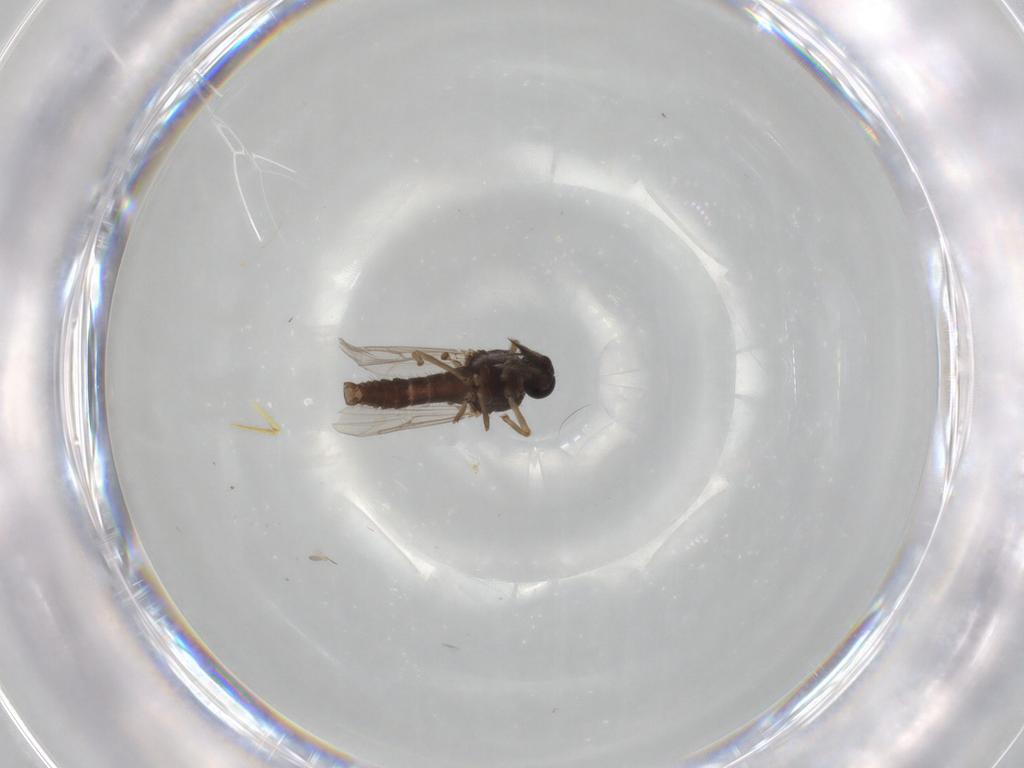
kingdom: Animalia
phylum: Arthropoda
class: Insecta
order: Diptera
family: Ceratopogonidae
